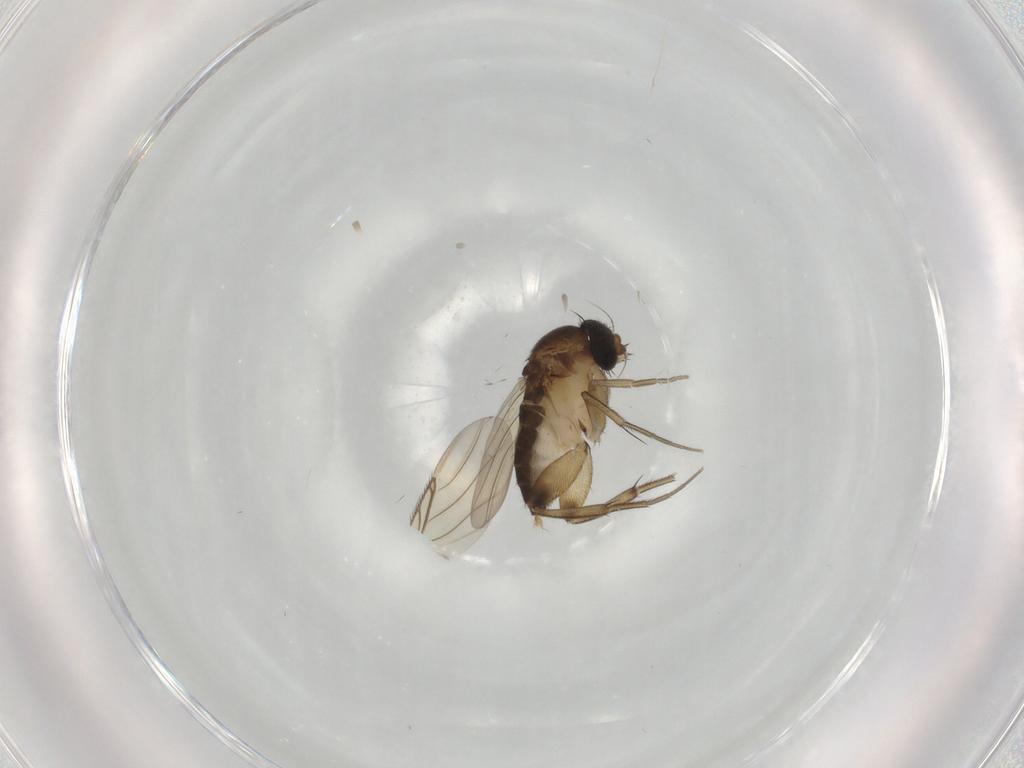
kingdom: Animalia
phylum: Arthropoda
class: Insecta
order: Diptera
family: Phoridae
